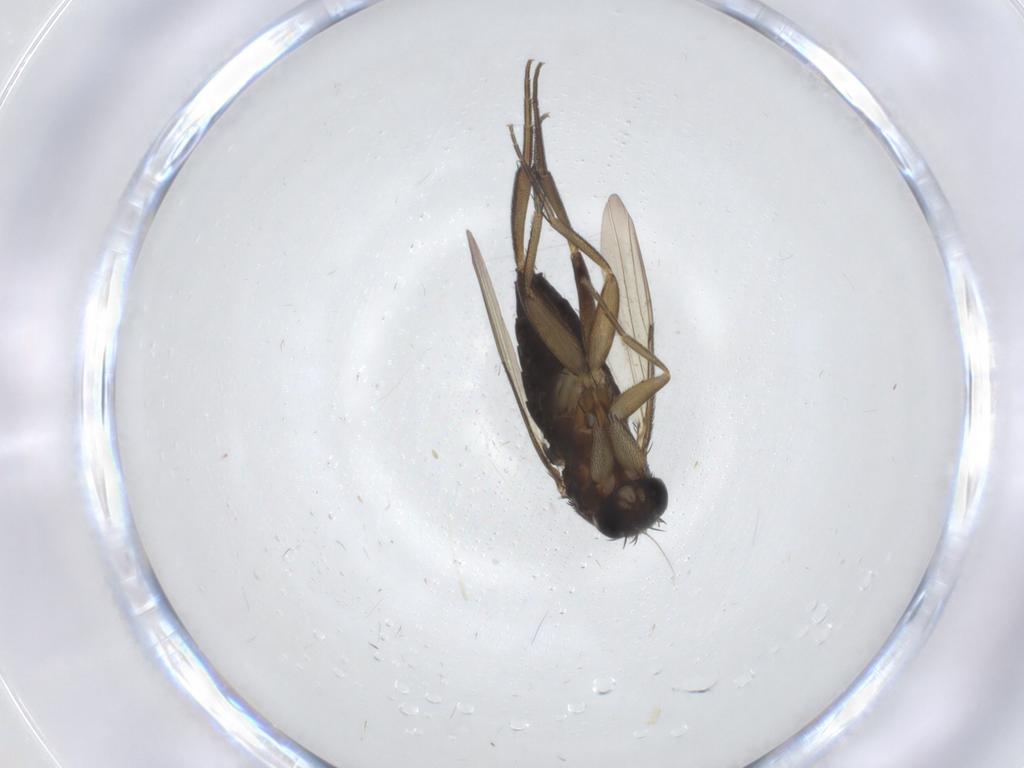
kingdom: Animalia
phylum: Arthropoda
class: Insecta
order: Diptera
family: Phoridae
